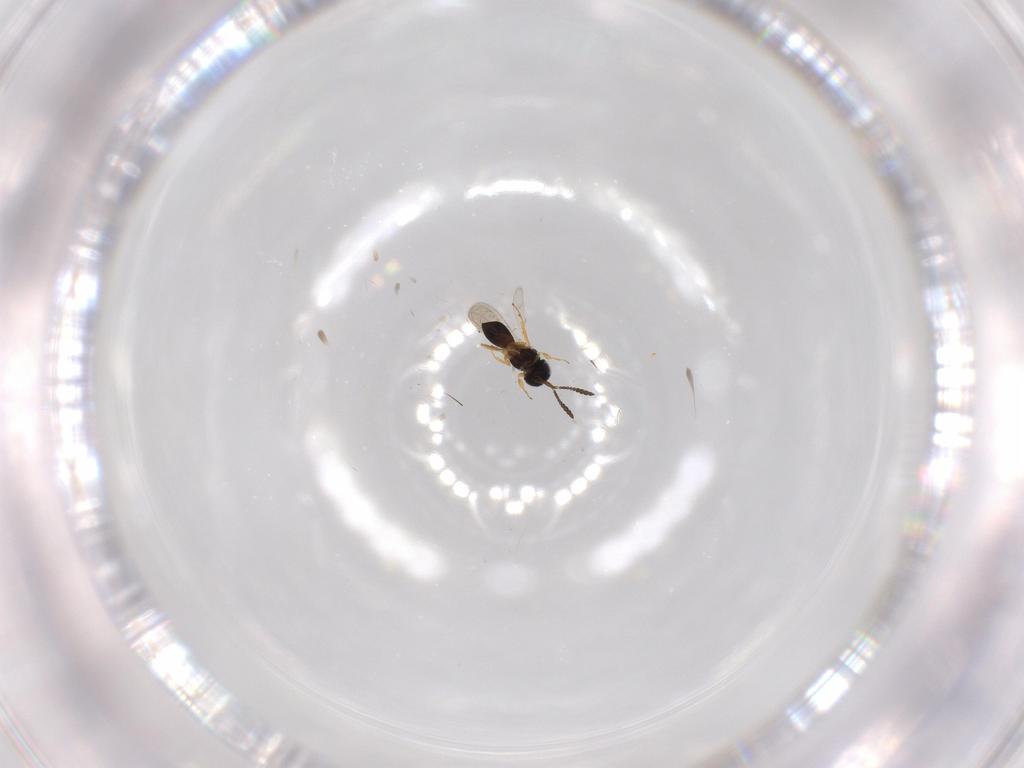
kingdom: Animalia
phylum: Arthropoda
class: Insecta
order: Hymenoptera
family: Scelionidae
